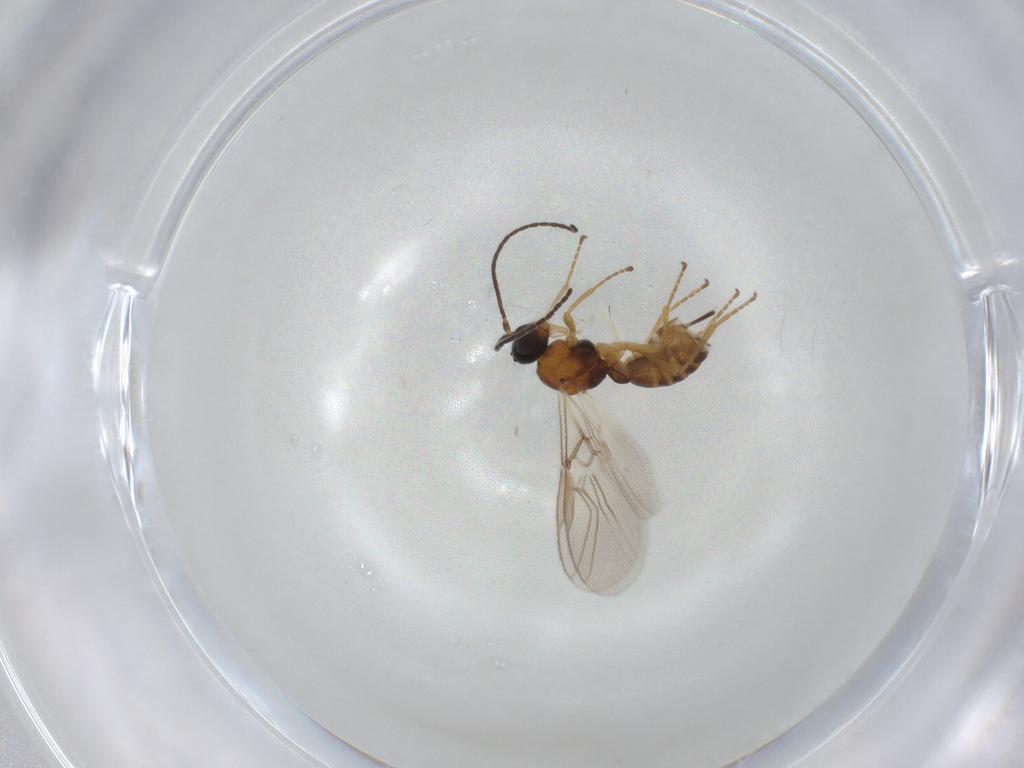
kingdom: Animalia
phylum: Arthropoda
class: Insecta
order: Hymenoptera
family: Braconidae
